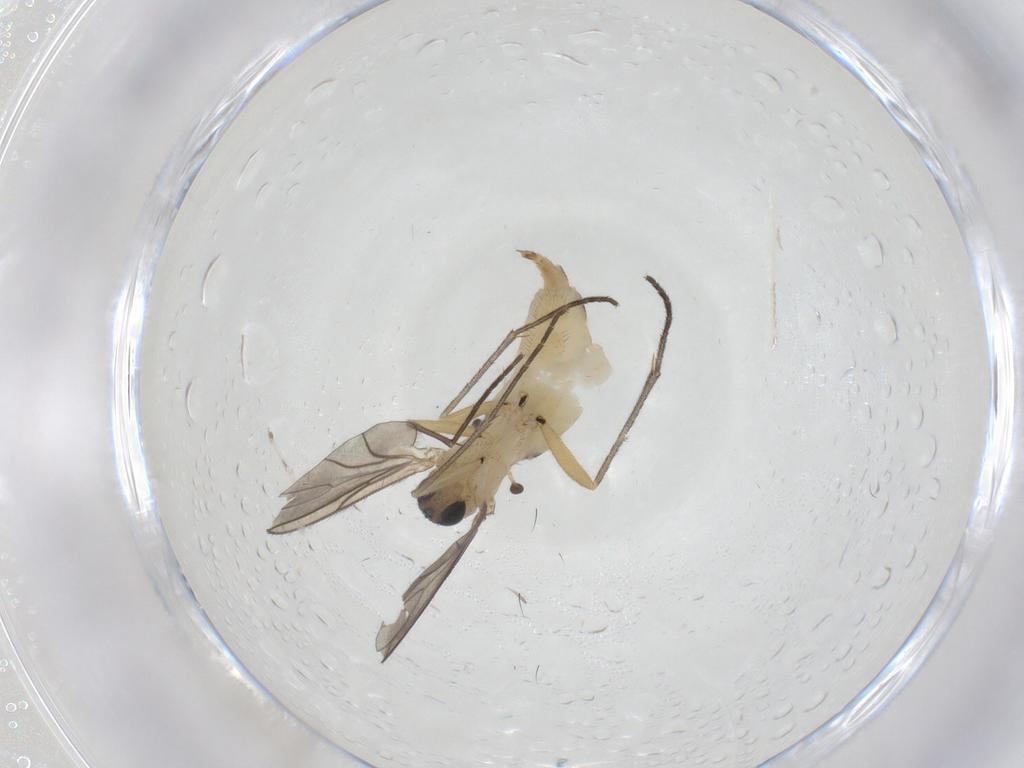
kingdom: Animalia
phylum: Arthropoda
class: Insecta
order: Diptera
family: Sciaridae
